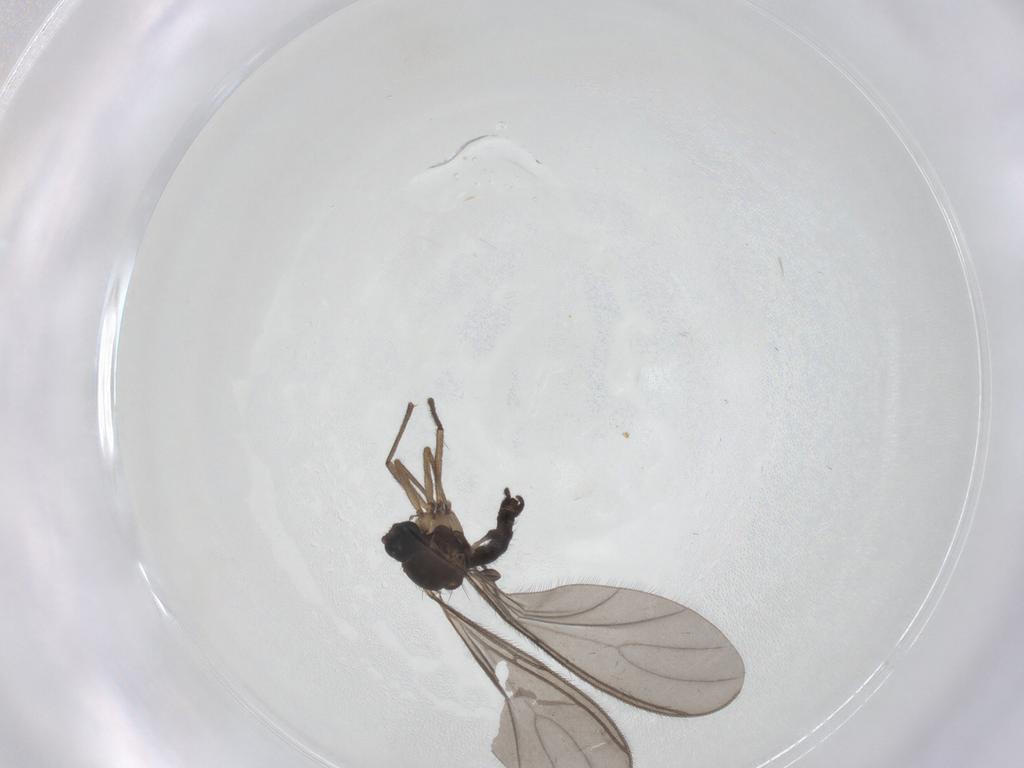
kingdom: Animalia
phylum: Arthropoda
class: Insecta
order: Diptera
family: Sciaridae
